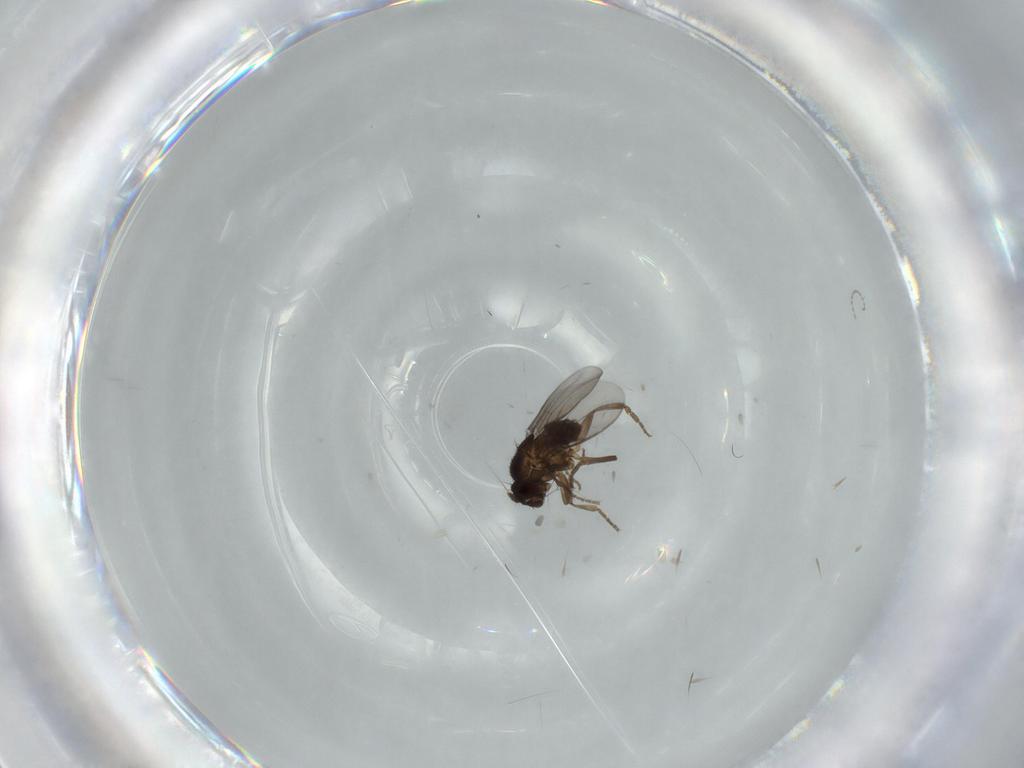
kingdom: Animalia
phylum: Arthropoda
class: Insecta
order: Diptera
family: Sphaeroceridae
